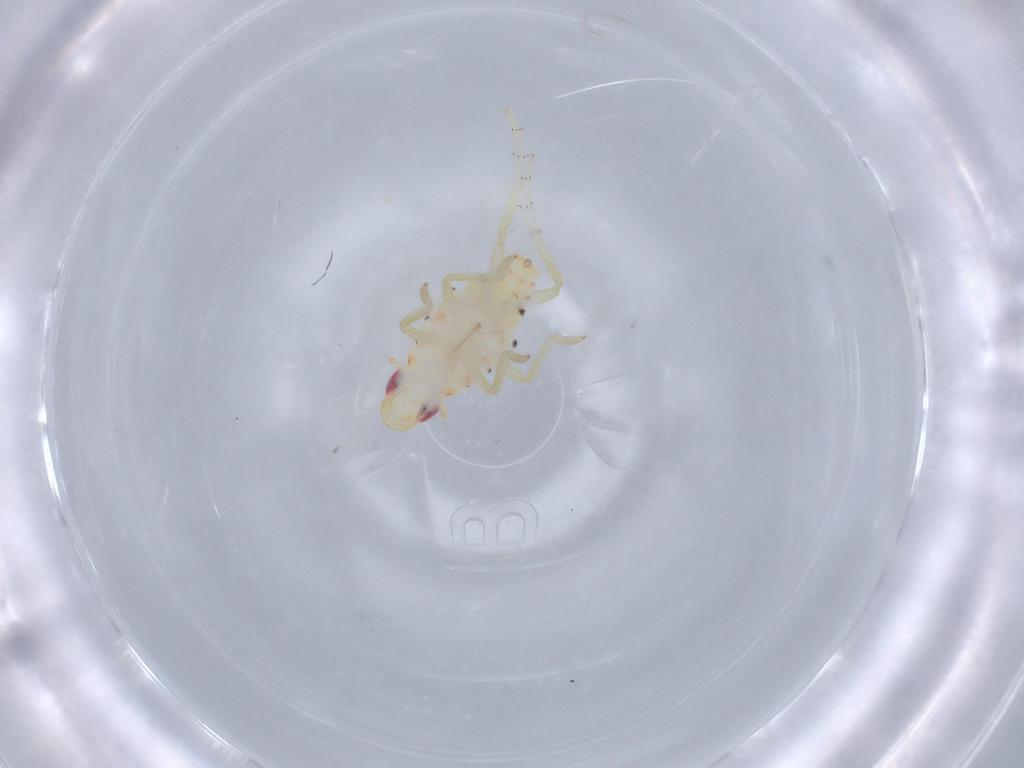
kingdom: Animalia
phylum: Arthropoda
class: Insecta
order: Hemiptera
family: Tropiduchidae
